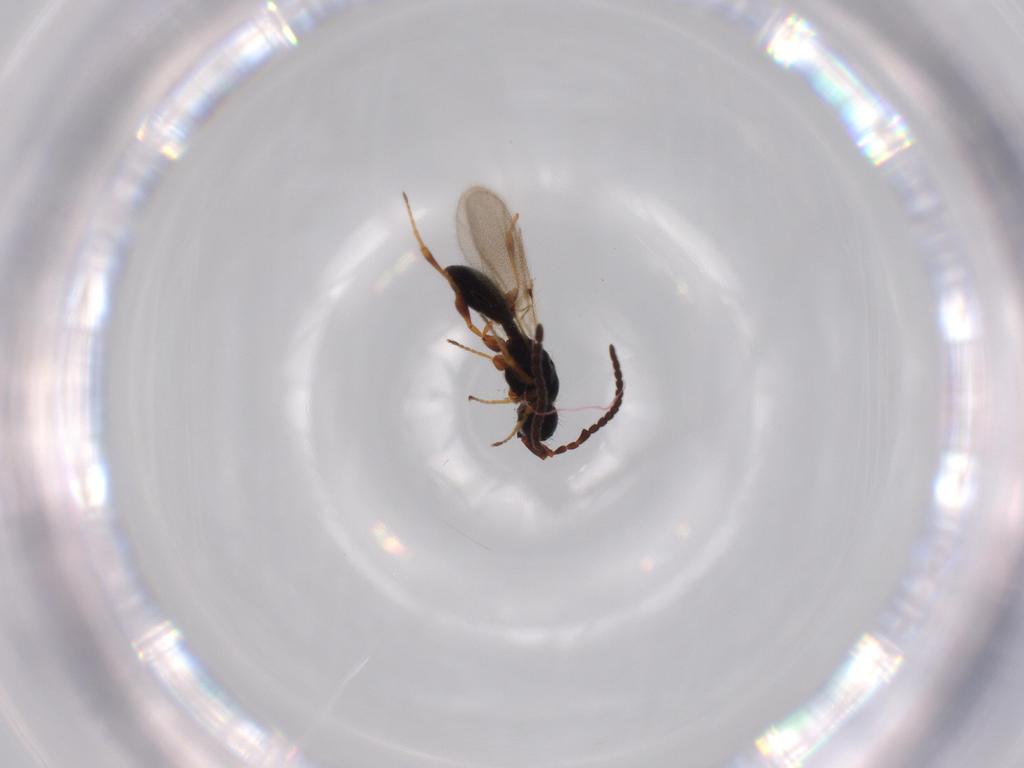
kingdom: Animalia
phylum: Arthropoda
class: Insecta
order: Hymenoptera
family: Diapriidae
